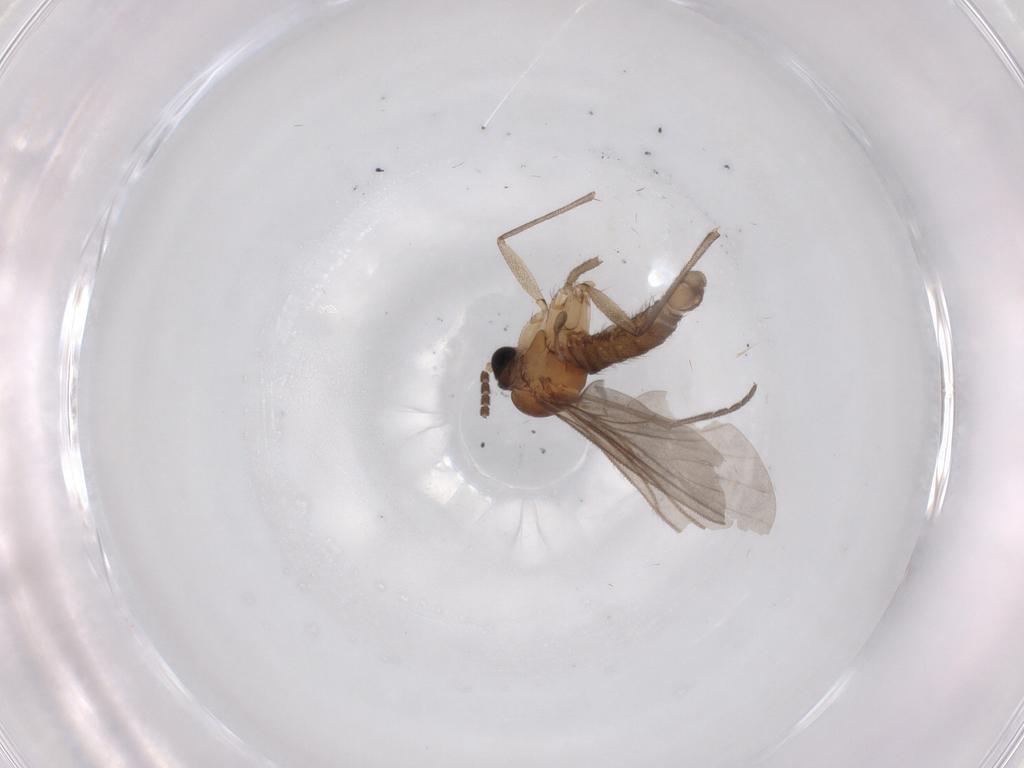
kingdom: Animalia
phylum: Arthropoda
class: Insecta
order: Diptera
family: Sciaridae
